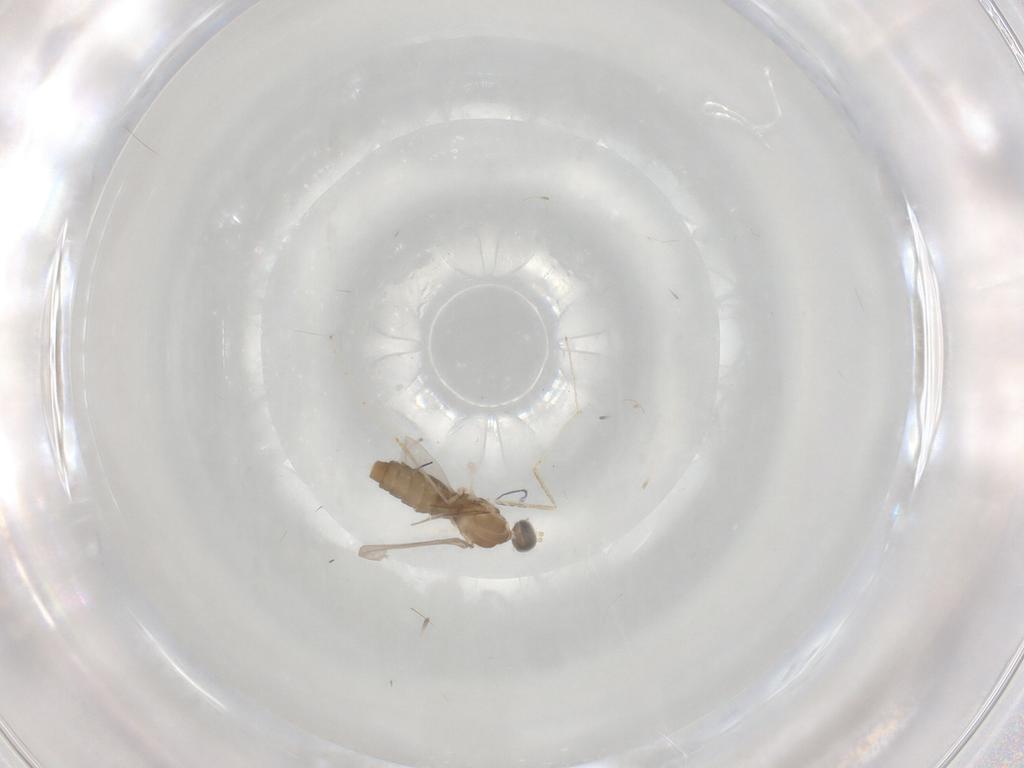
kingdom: Animalia
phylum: Arthropoda
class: Insecta
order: Diptera
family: Cecidomyiidae
